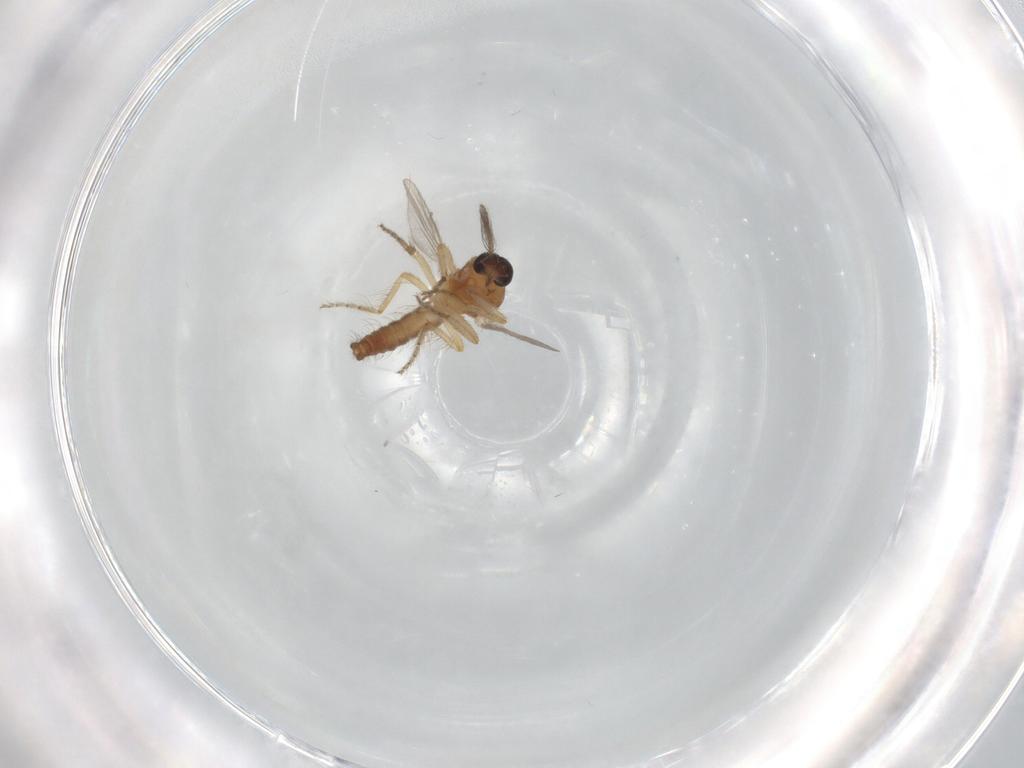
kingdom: Animalia
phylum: Arthropoda
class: Insecta
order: Diptera
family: Ceratopogonidae
